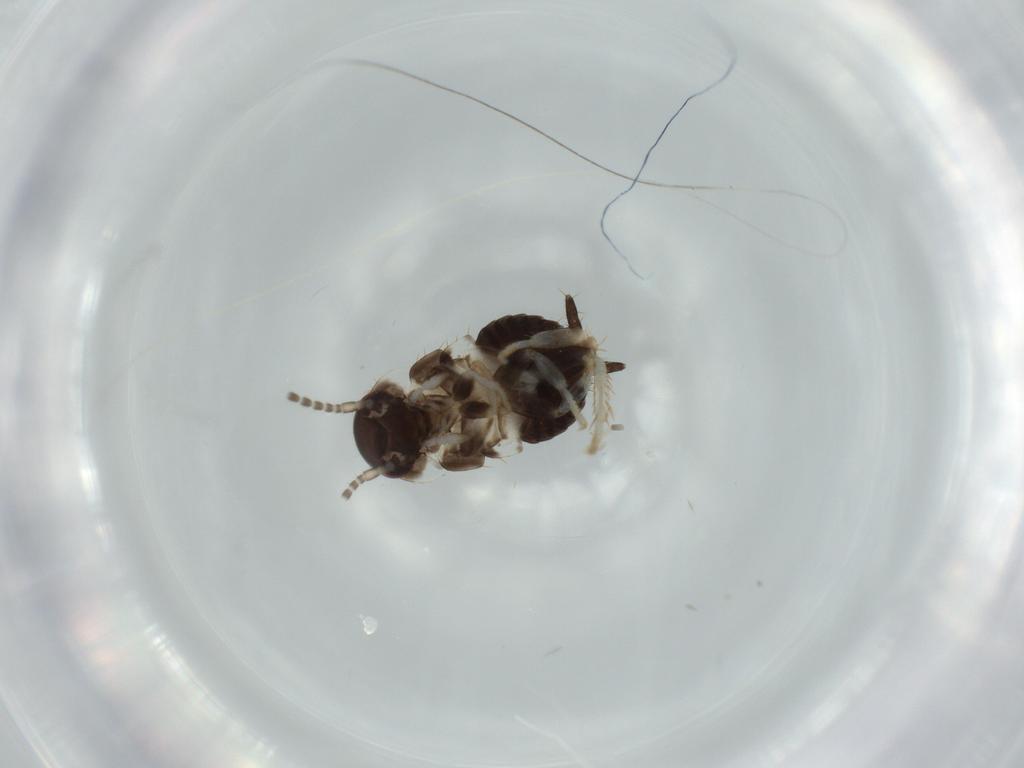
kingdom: Animalia
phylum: Arthropoda
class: Insecta
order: Blattodea
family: Ectobiidae
